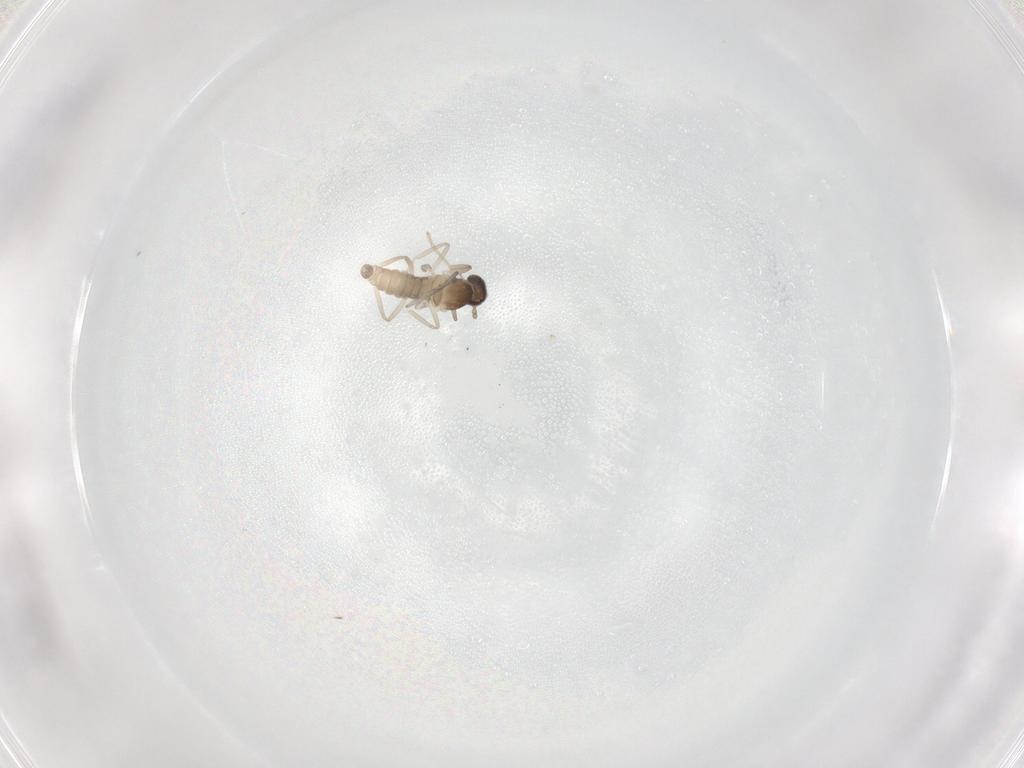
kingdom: Animalia
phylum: Arthropoda
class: Insecta
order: Diptera
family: Cecidomyiidae
